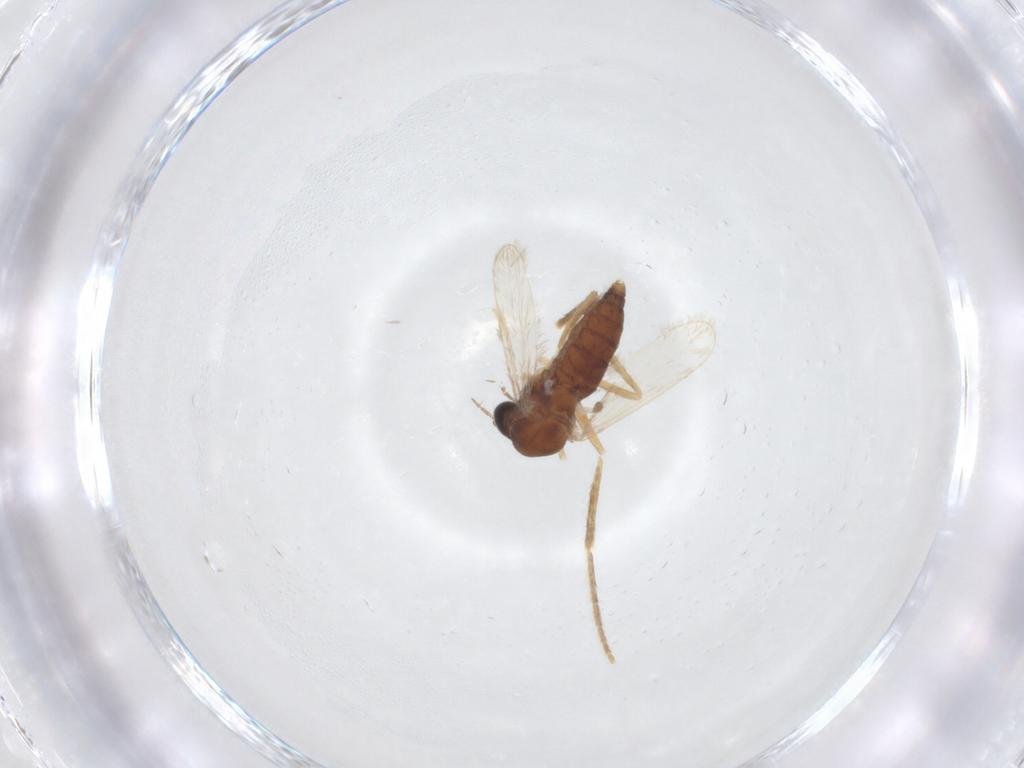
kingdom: Animalia
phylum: Arthropoda
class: Insecta
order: Diptera
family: Corethrellidae
